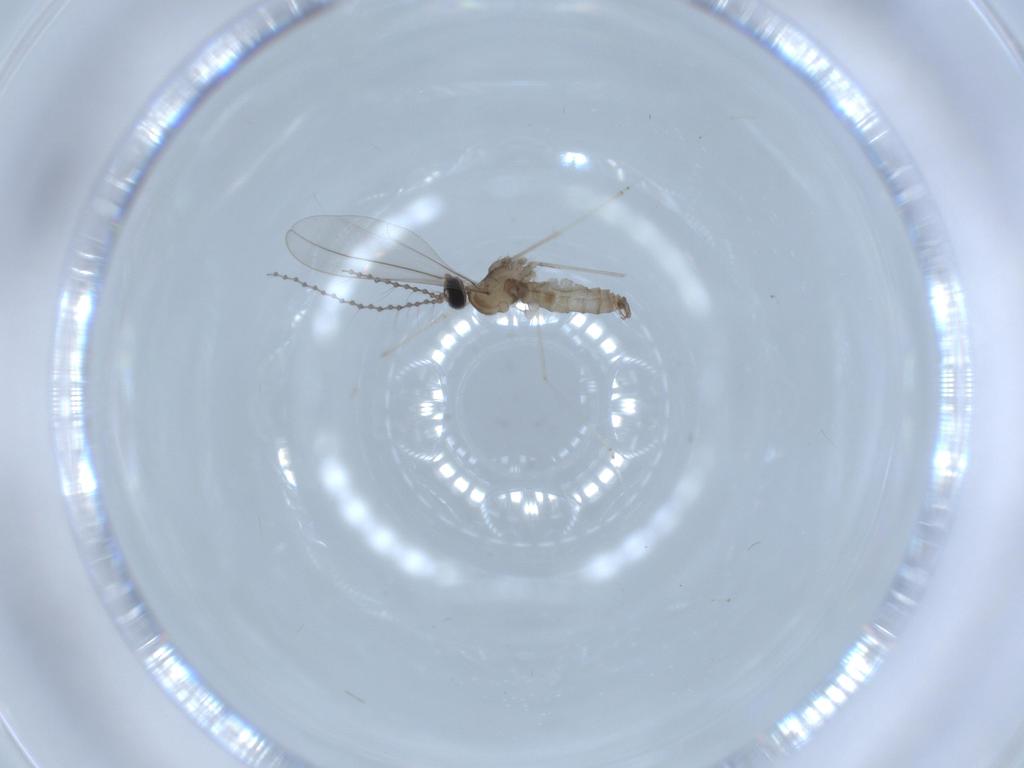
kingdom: Animalia
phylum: Arthropoda
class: Insecta
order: Diptera
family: Cecidomyiidae
